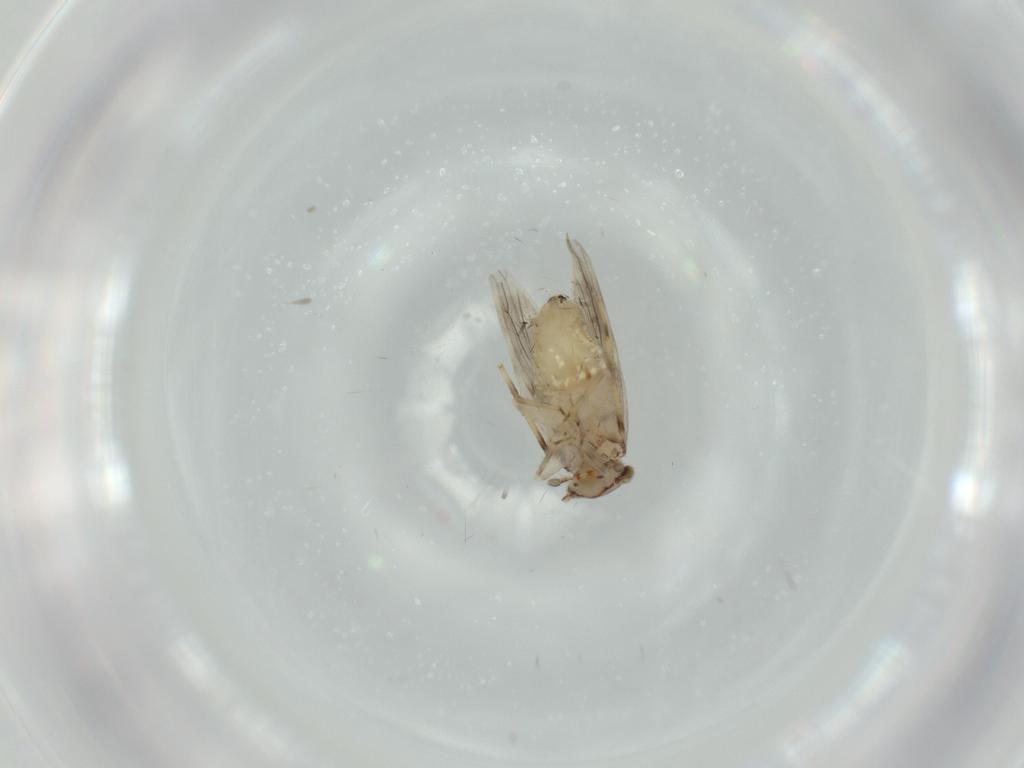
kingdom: Animalia
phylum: Arthropoda
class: Insecta
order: Psocodea
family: Lepidopsocidae
